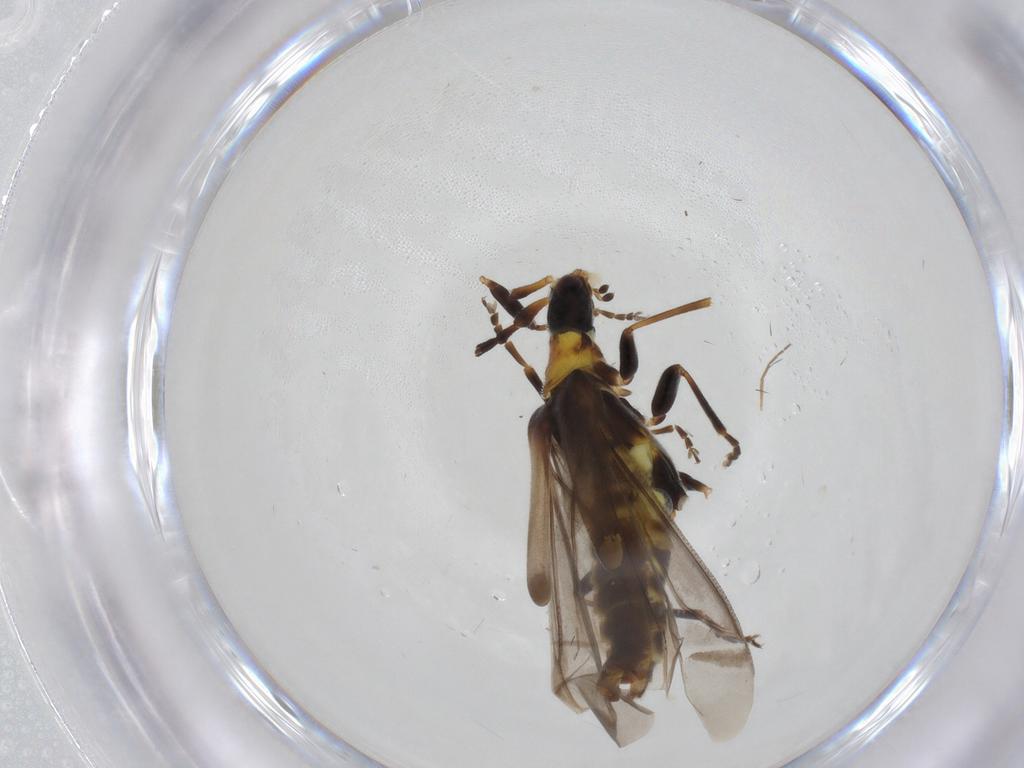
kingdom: Animalia
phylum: Arthropoda
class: Insecta
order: Coleoptera
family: Cantharidae
